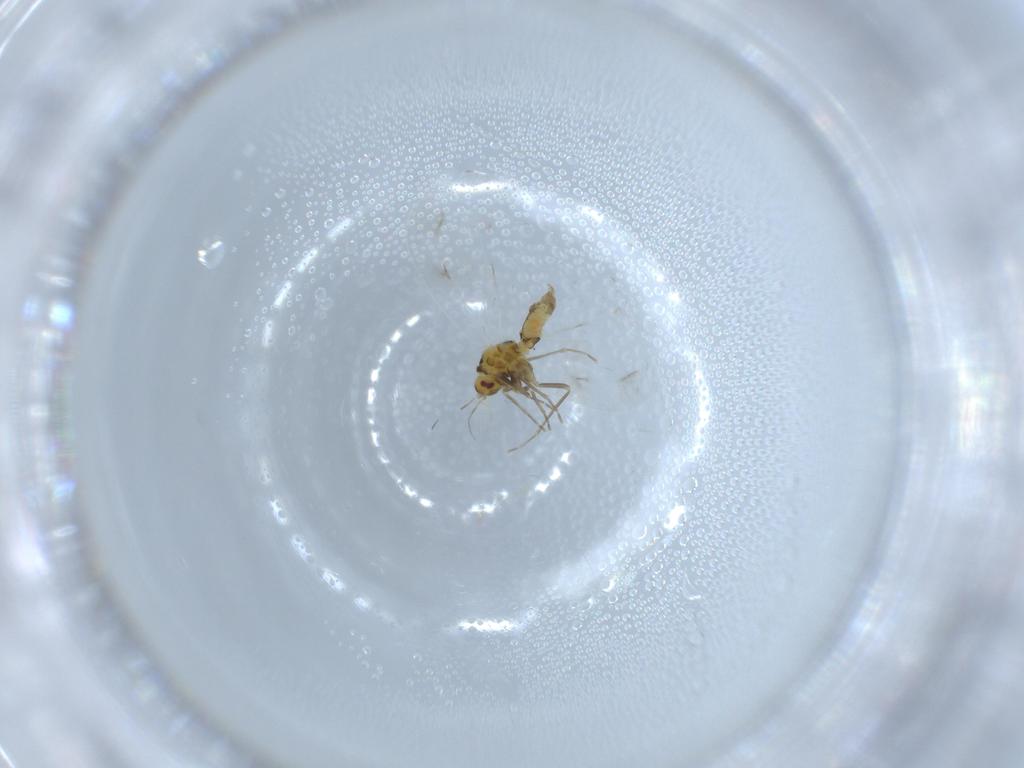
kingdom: Animalia
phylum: Arthropoda
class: Insecta
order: Hemiptera
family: Aleyrodidae
